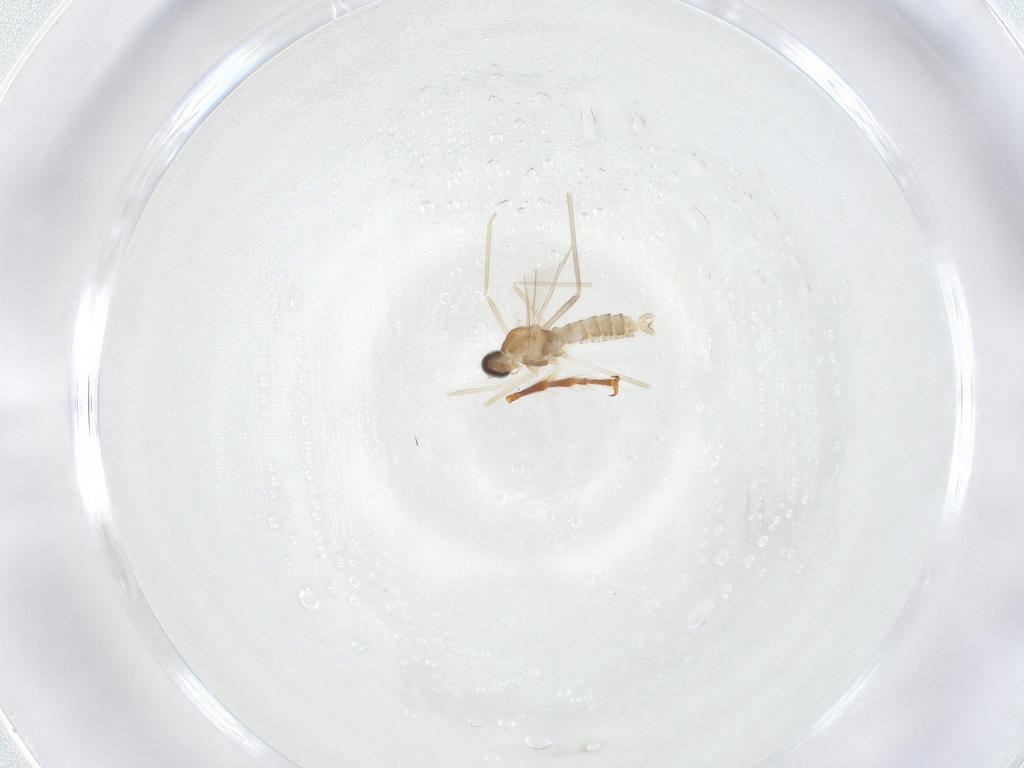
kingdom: Animalia
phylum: Arthropoda
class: Insecta
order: Diptera
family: Cecidomyiidae
